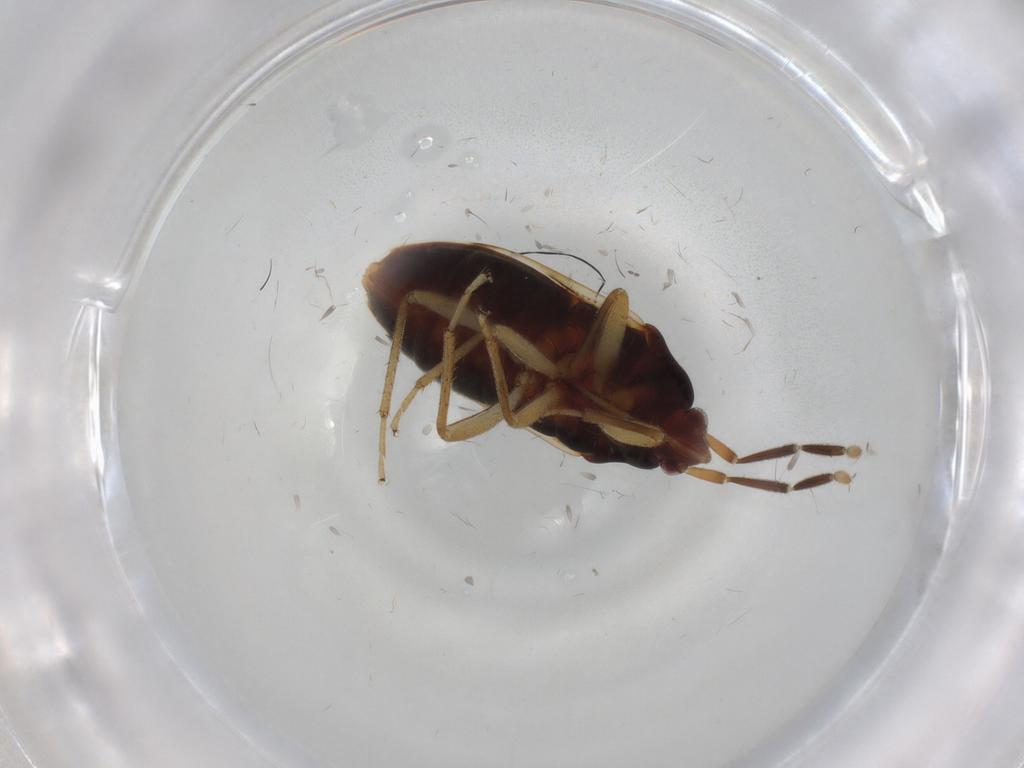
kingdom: Animalia
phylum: Arthropoda
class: Insecta
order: Hemiptera
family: Rhyparochromidae
